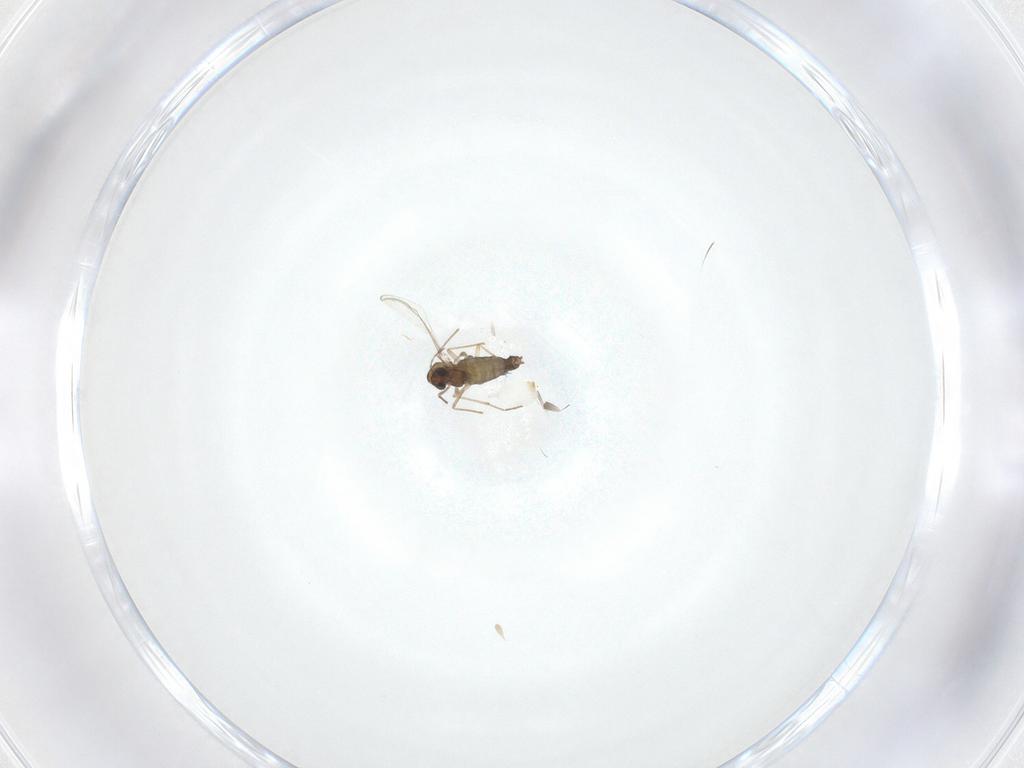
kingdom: Animalia
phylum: Arthropoda
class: Insecta
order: Diptera
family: Chironomidae
